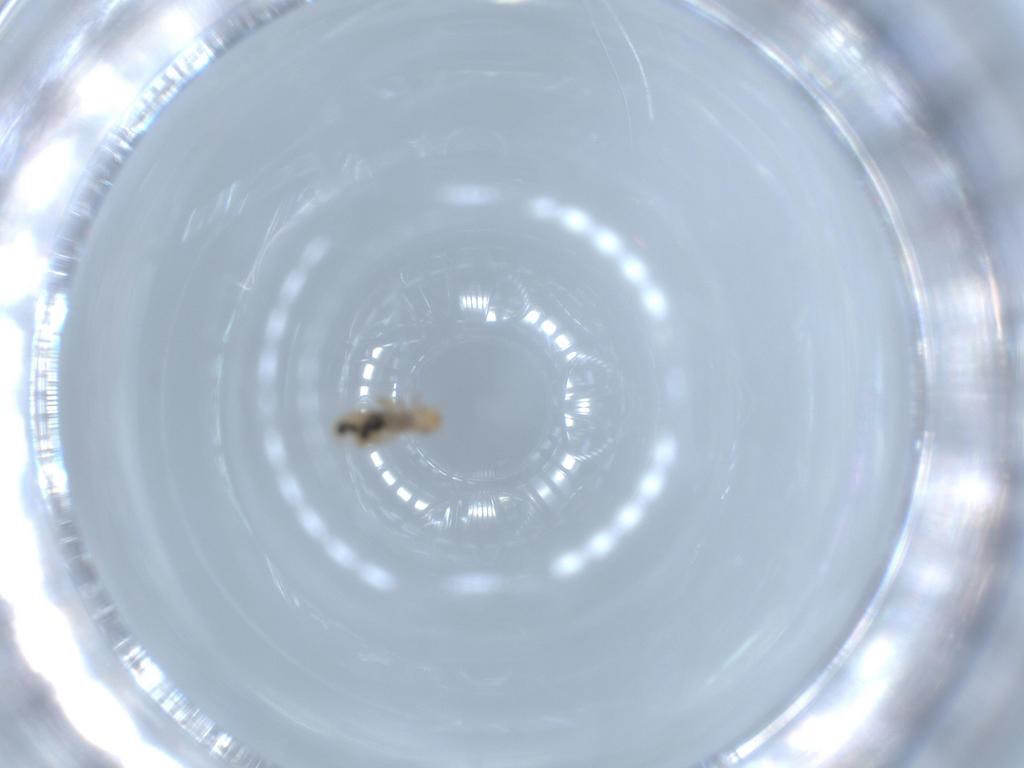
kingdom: Animalia
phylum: Arthropoda
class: Insecta
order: Psocodea
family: Liposcelididae
